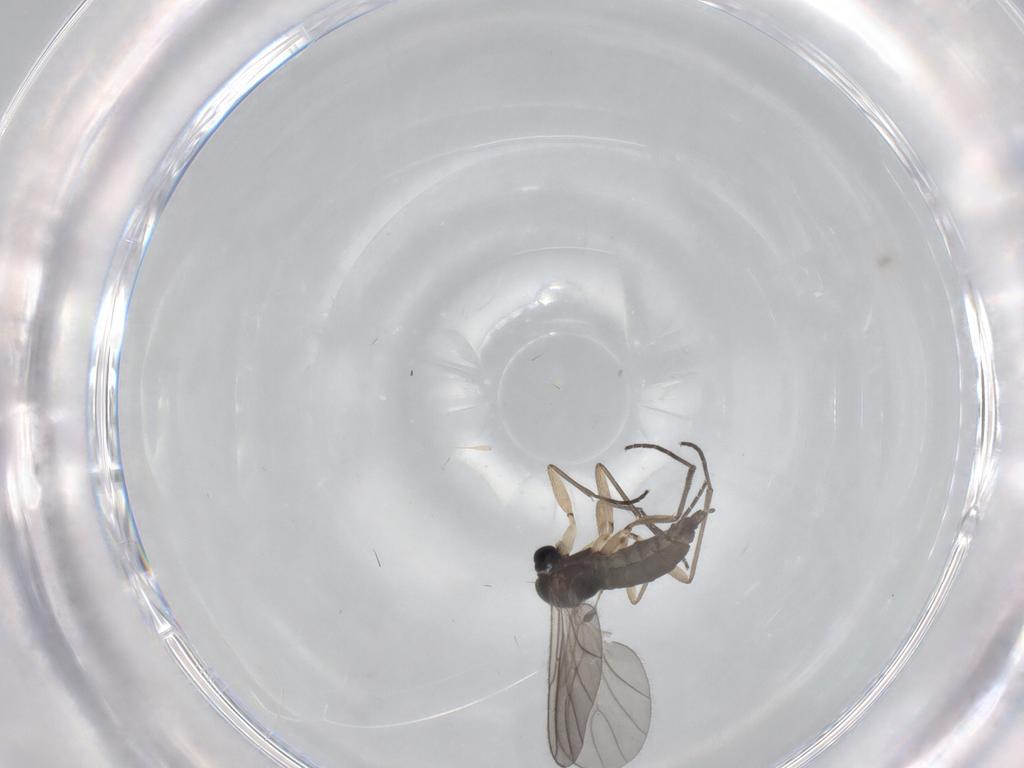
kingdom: Animalia
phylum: Arthropoda
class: Insecta
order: Diptera
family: Sciaridae
